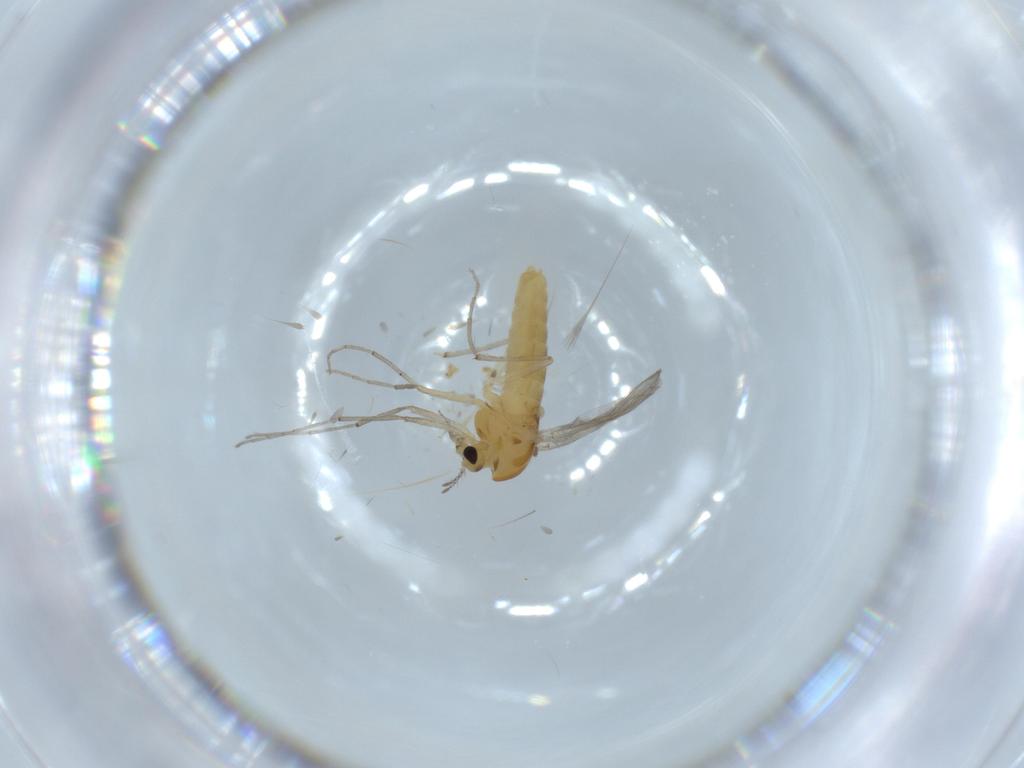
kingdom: Animalia
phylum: Arthropoda
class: Insecta
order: Diptera
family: Chironomidae
